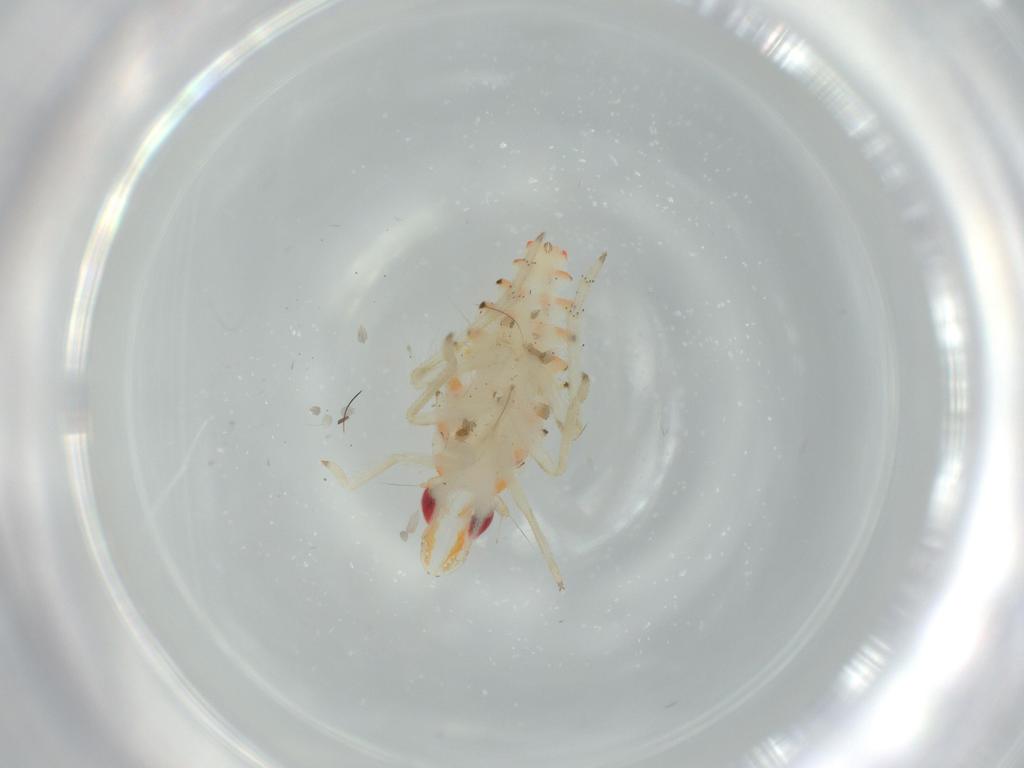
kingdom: Animalia
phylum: Arthropoda
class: Insecta
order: Hemiptera
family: Tropiduchidae
